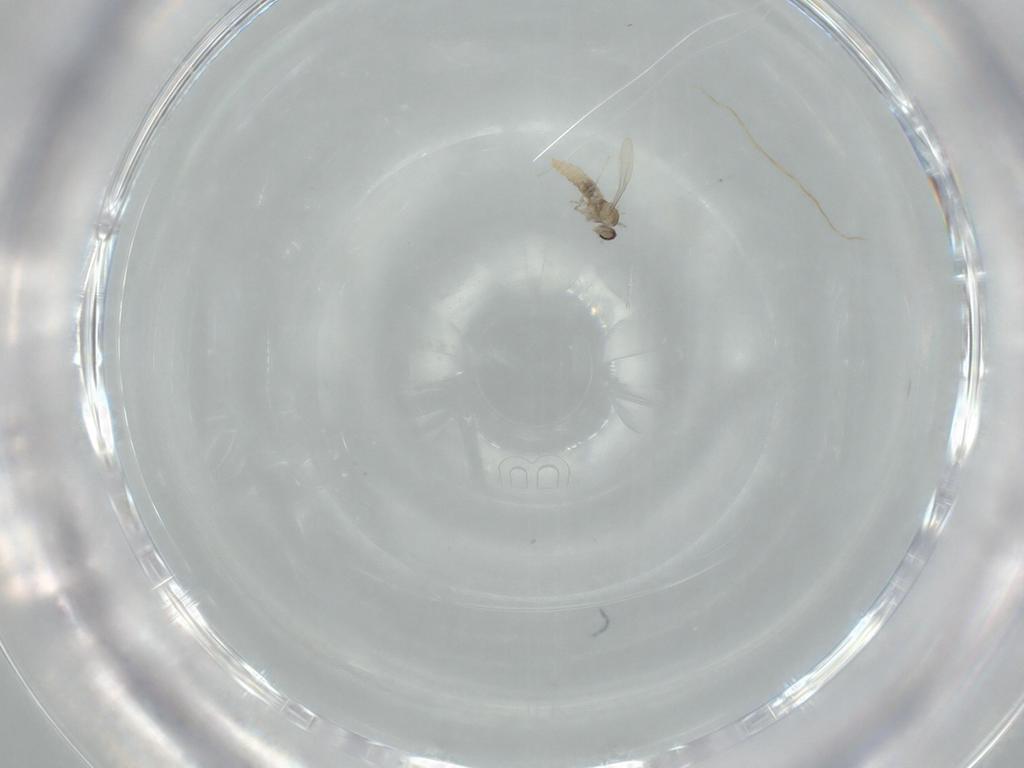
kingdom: Animalia
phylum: Arthropoda
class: Insecta
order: Diptera
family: Cecidomyiidae
